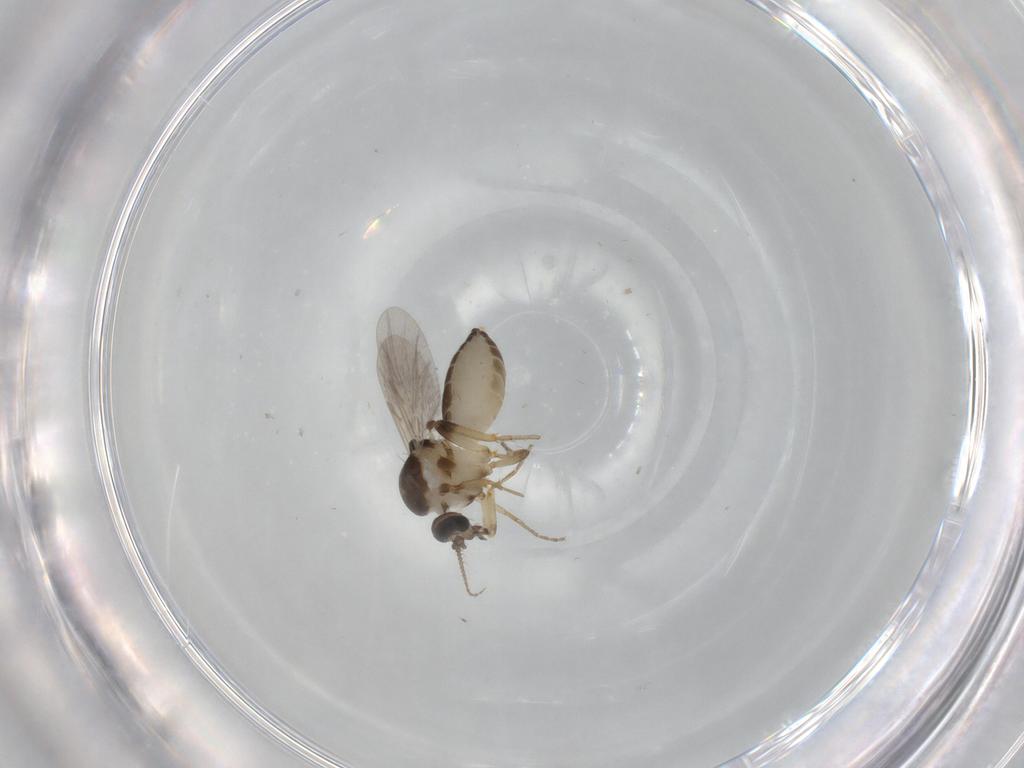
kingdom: Animalia
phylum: Arthropoda
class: Insecta
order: Diptera
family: Ceratopogonidae
